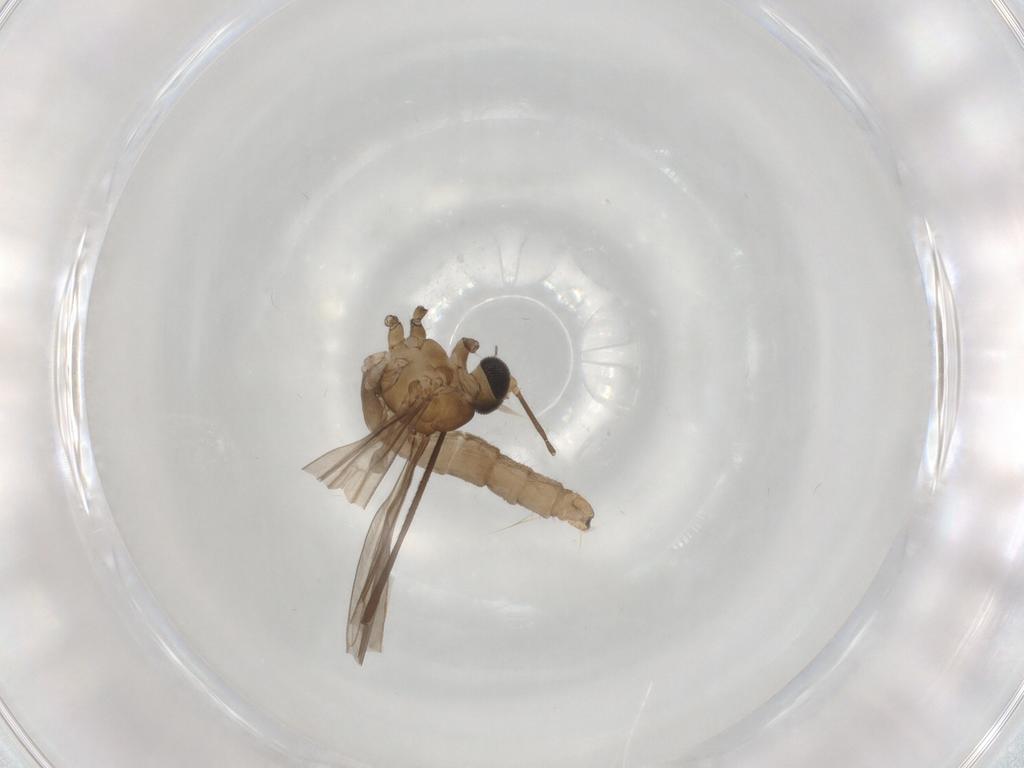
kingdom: Animalia
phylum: Arthropoda
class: Insecta
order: Diptera
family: Sciaridae
